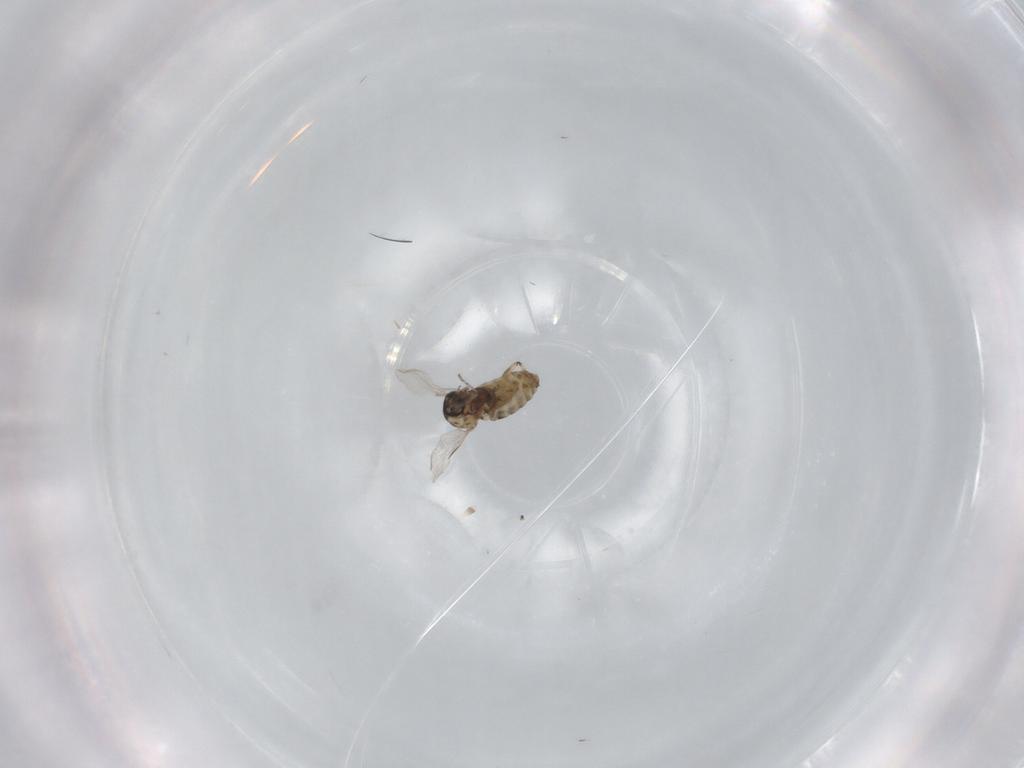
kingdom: Animalia
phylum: Arthropoda
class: Insecta
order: Diptera
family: Ceratopogonidae
